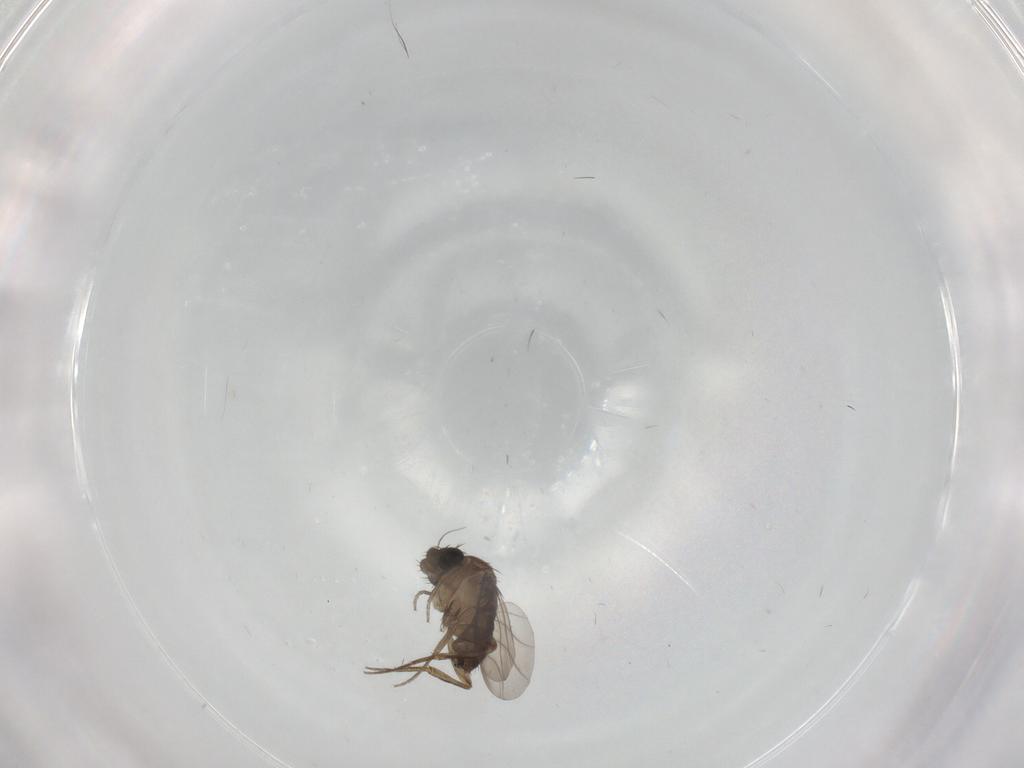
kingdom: Animalia
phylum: Arthropoda
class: Insecta
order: Diptera
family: Phoridae
